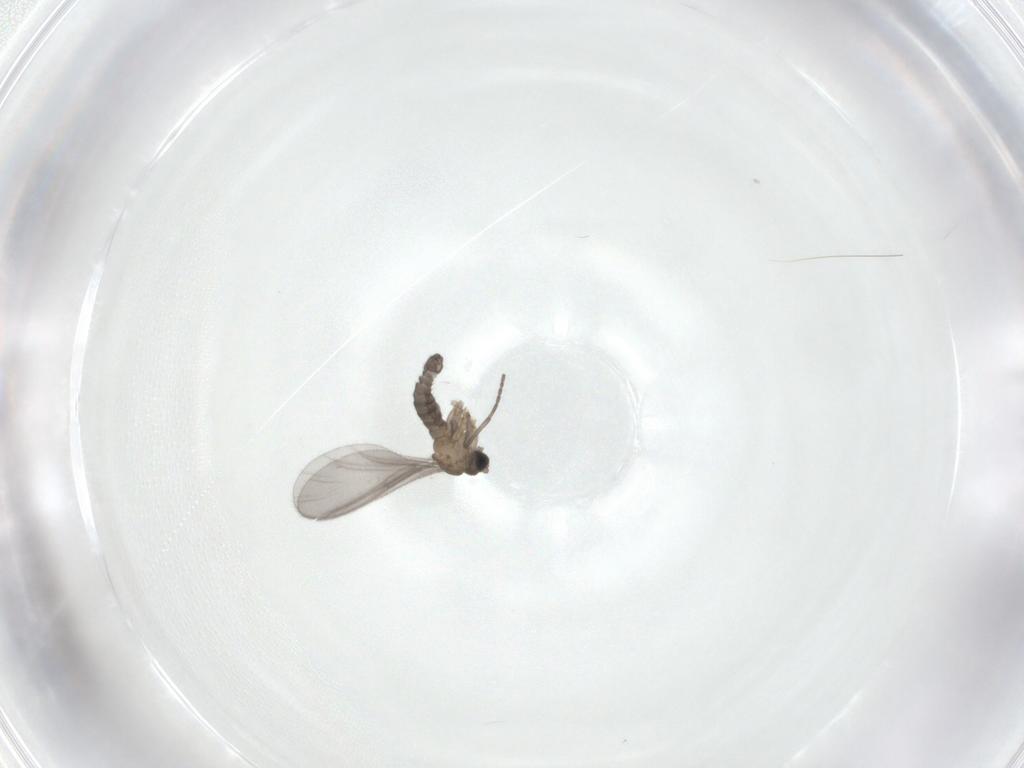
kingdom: Animalia
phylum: Arthropoda
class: Insecta
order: Diptera
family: Sciaridae
